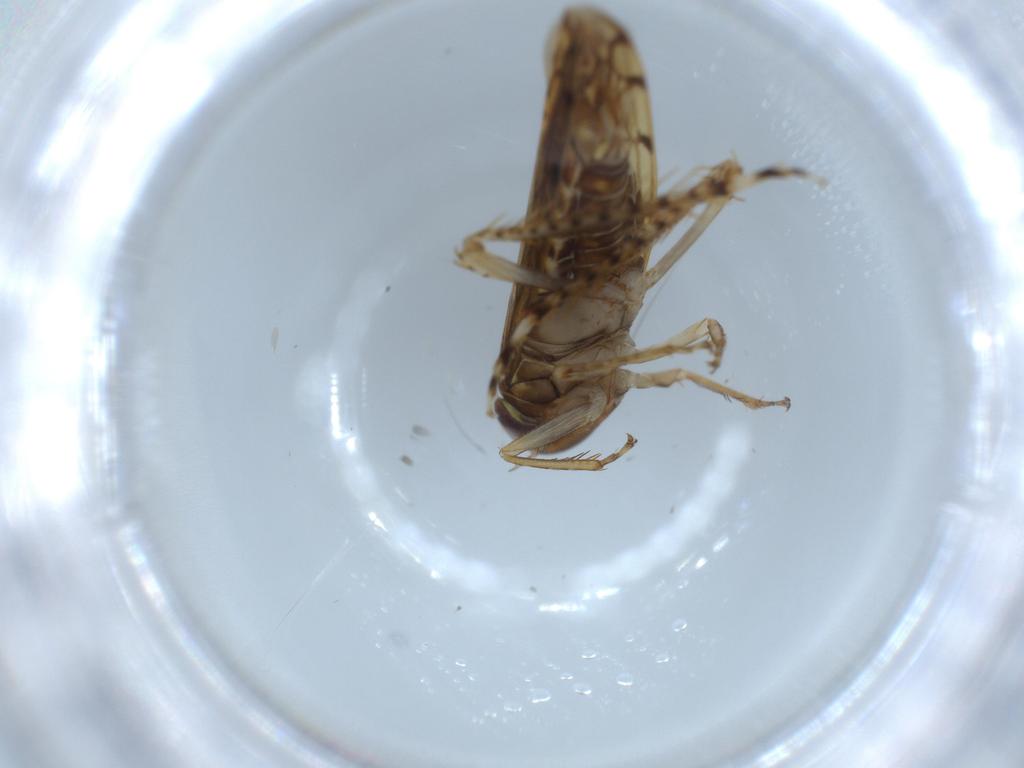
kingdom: Animalia
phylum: Arthropoda
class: Insecta
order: Hemiptera
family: Cicadellidae
